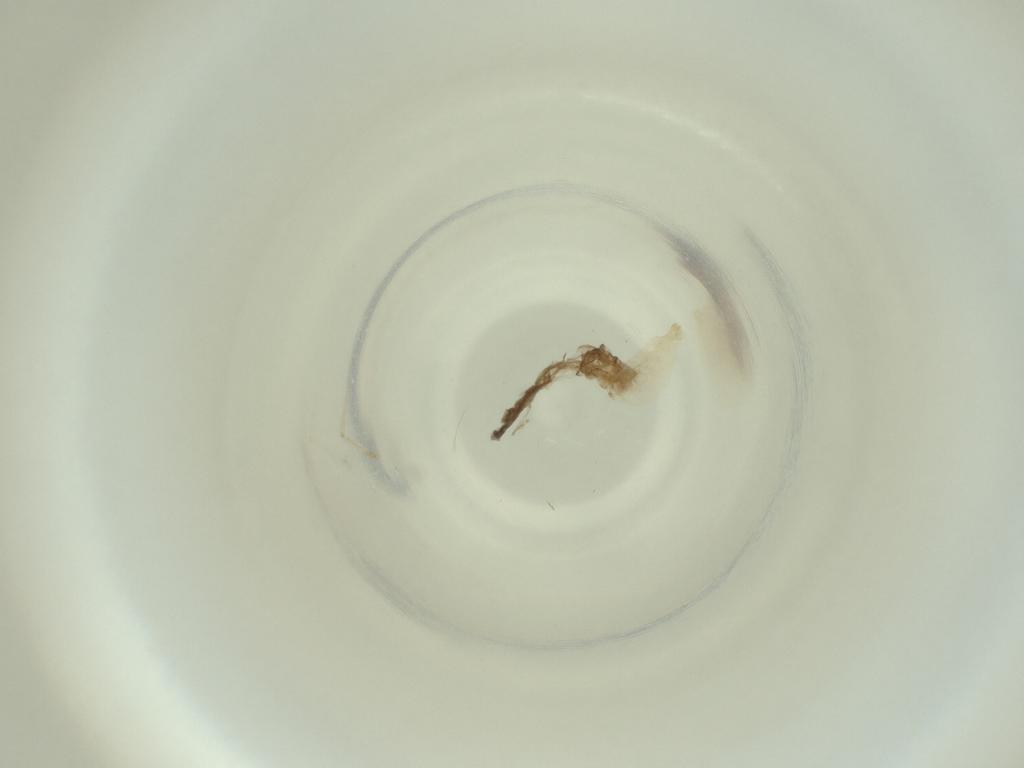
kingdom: Animalia
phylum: Arthropoda
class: Insecta
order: Diptera
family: Cecidomyiidae
